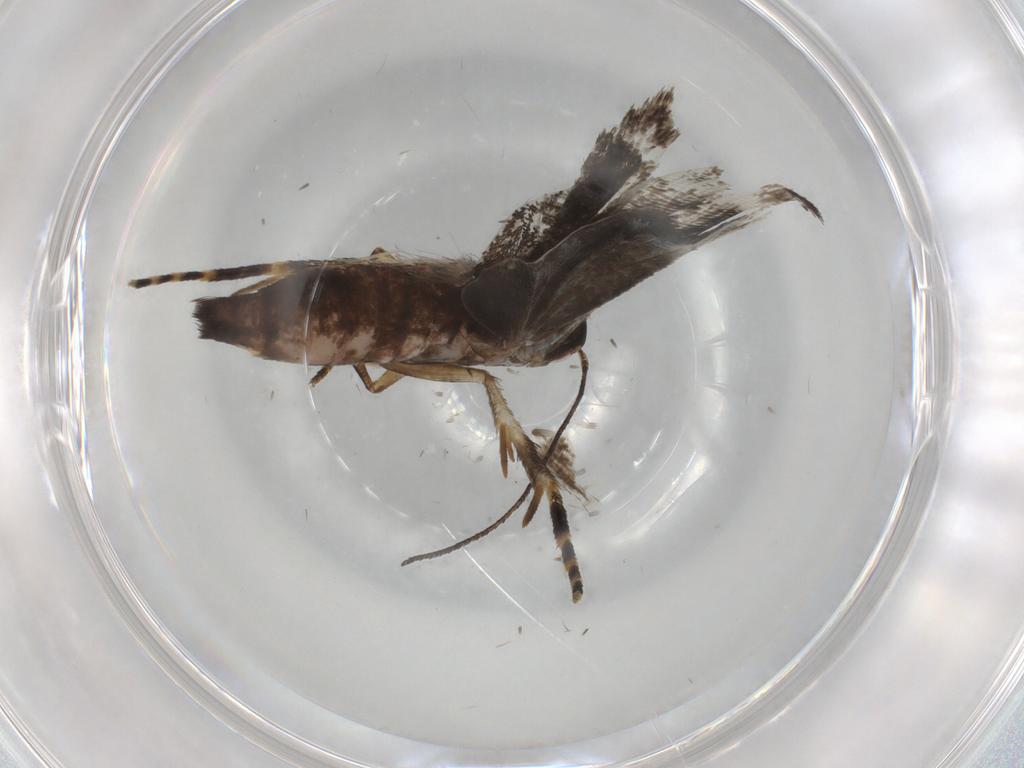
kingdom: Animalia
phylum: Arthropoda
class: Insecta
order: Lepidoptera
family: Gelechiidae
